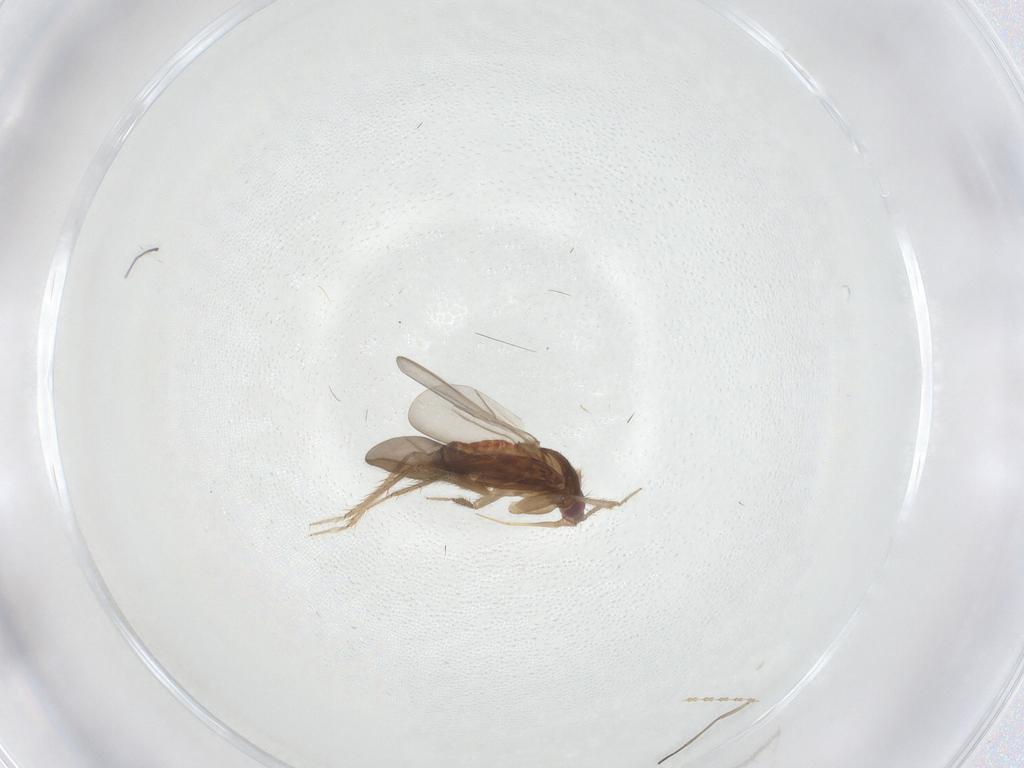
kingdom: Animalia
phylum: Arthropoda
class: Insecta
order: Hemiptera
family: Ceratocombidae
